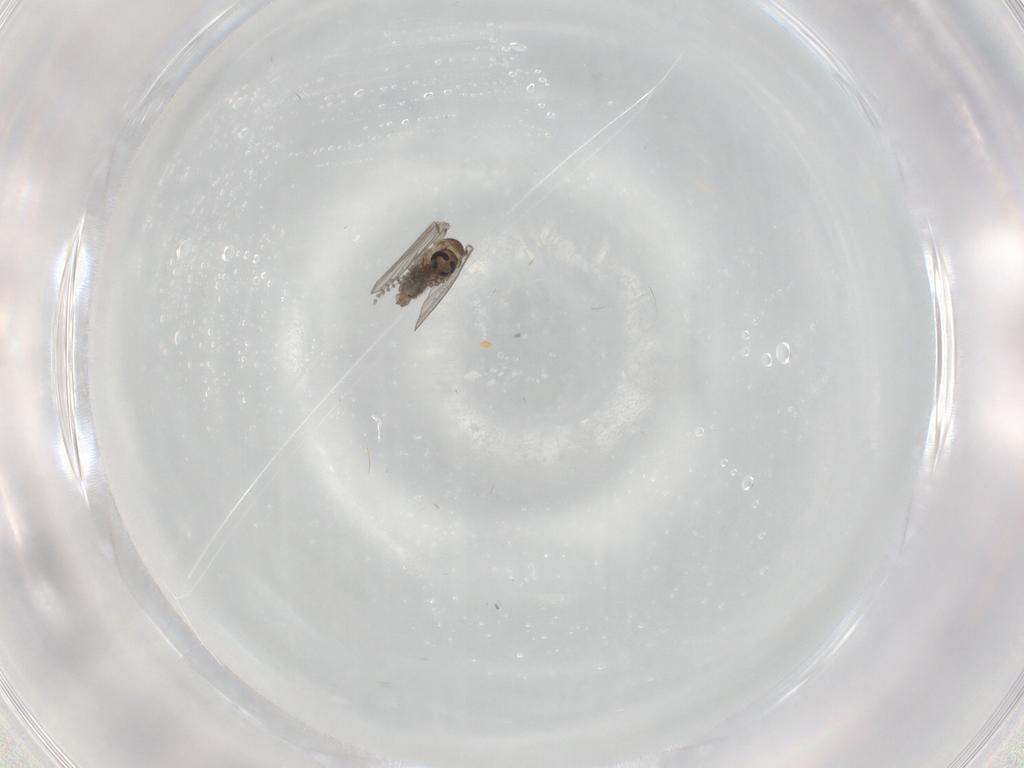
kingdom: Animalia
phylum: Arthropoda
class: Insecta
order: Diptera
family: Psychodidae
